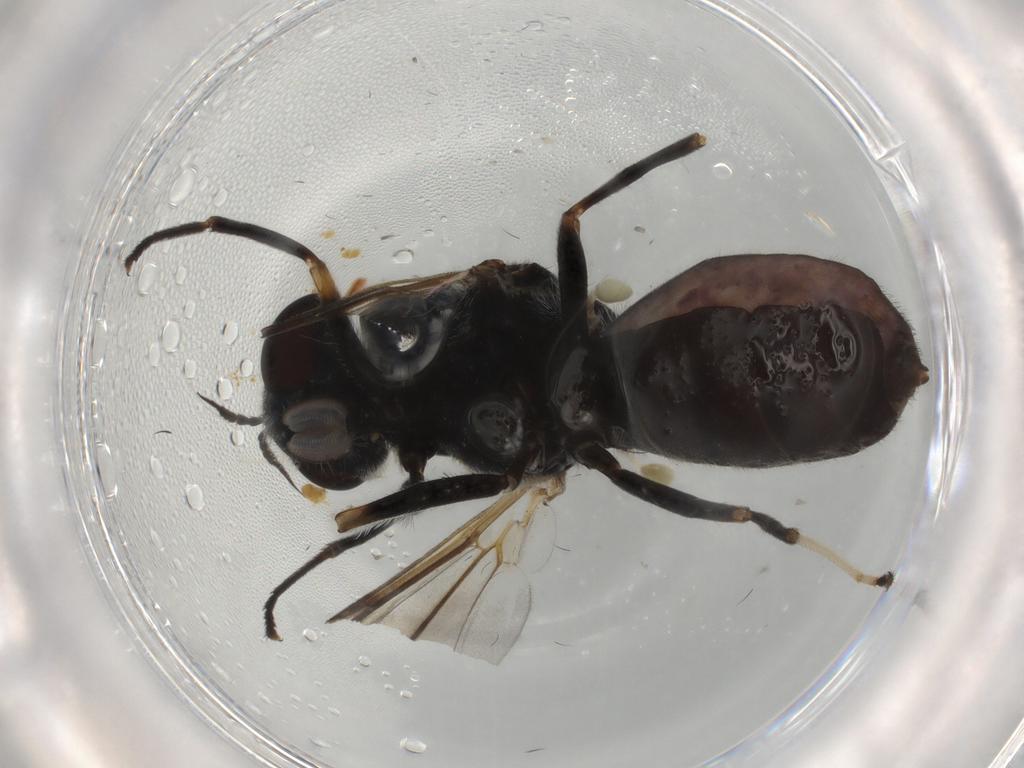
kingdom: Animalia
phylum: Arthropoda
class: Insecta
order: Diptera
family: Stratiomyidae
